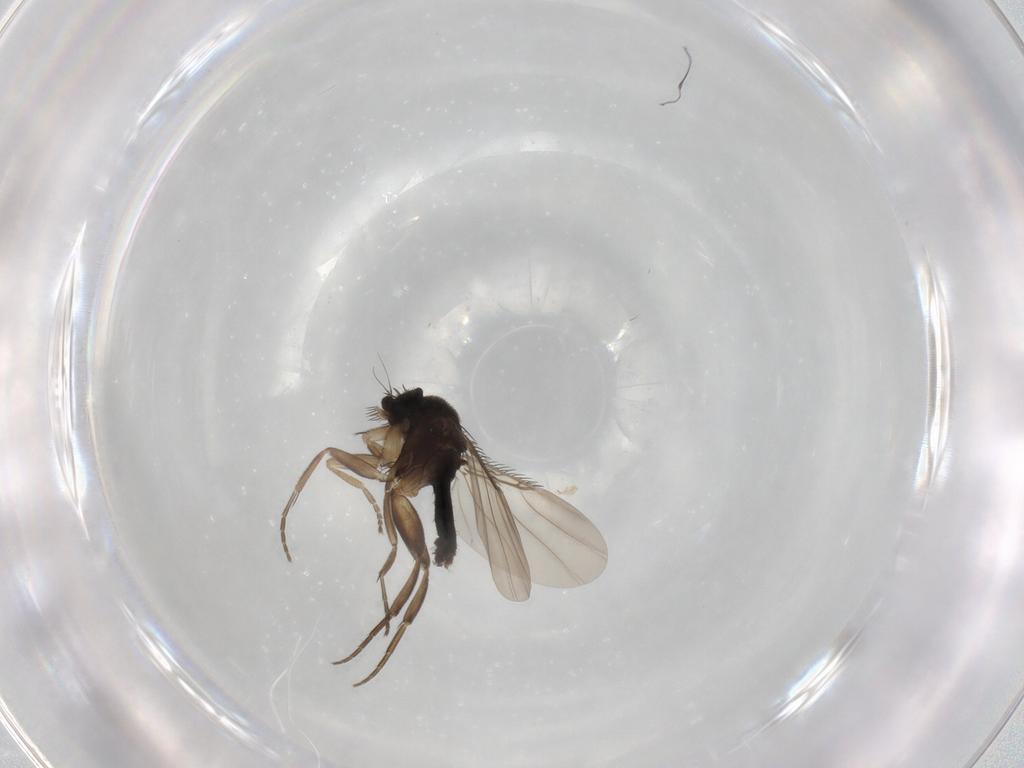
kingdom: Animalia
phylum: Arthropoda
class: Insecta
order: Diptera
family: Phoridae
